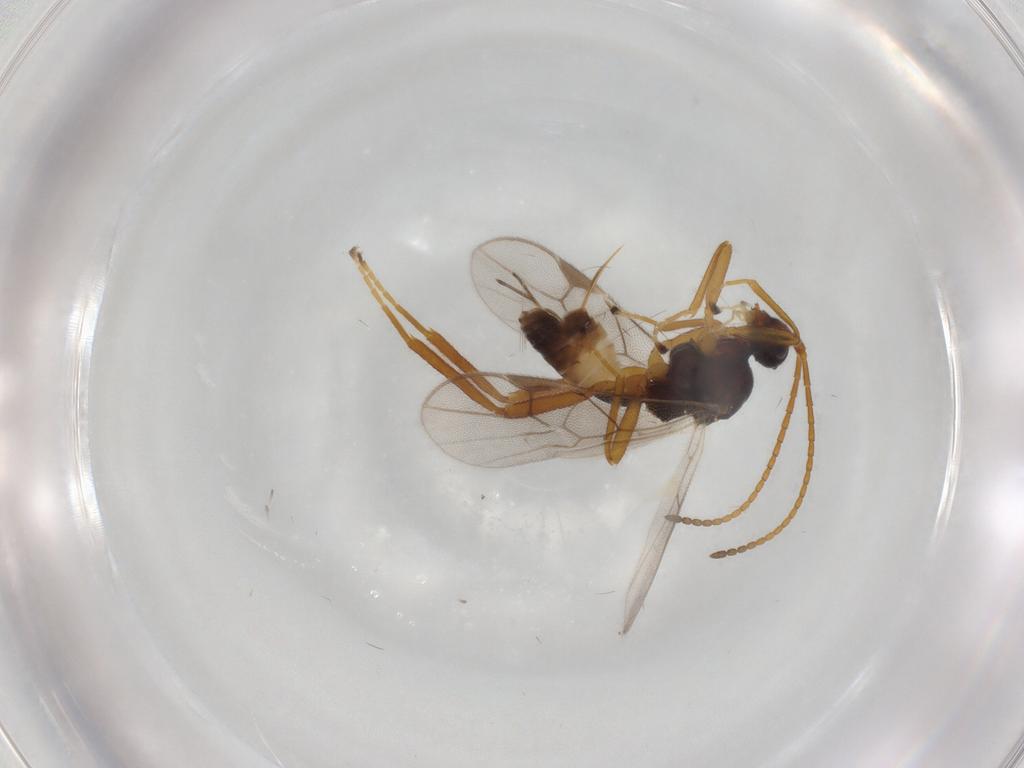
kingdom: Animalia
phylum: Arthropoda
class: Insecta
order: Hymenoptera
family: Braconidae
